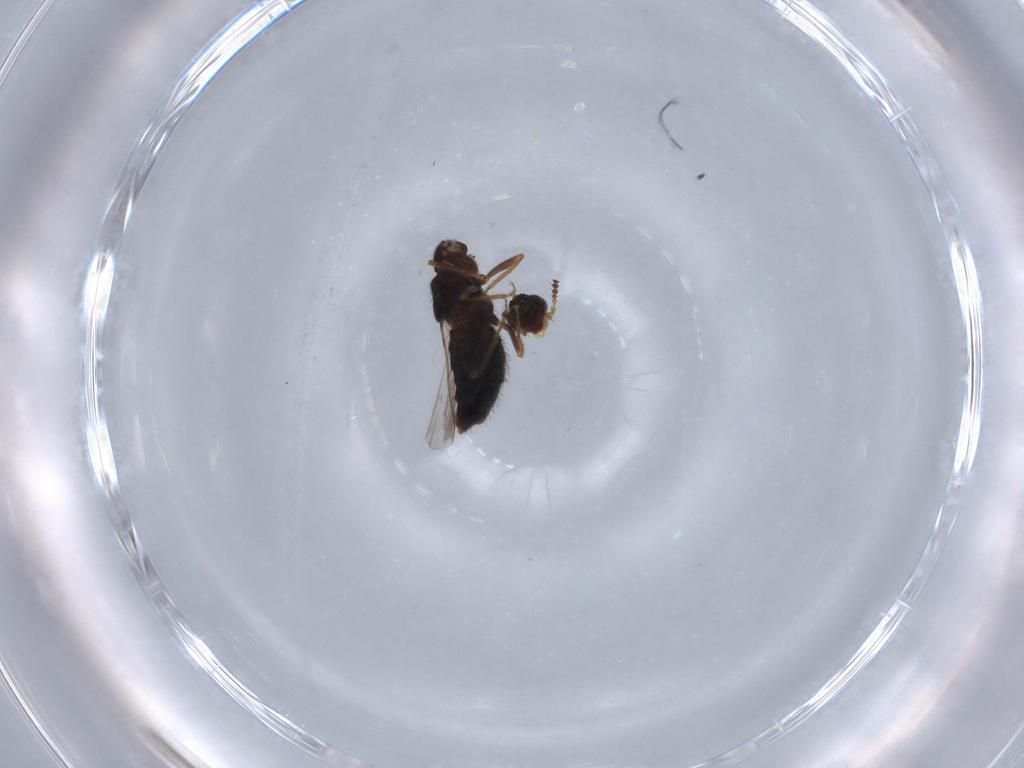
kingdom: Animalia
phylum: Arthropoda
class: Insecta
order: Coleoptera
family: Staphylinidae
